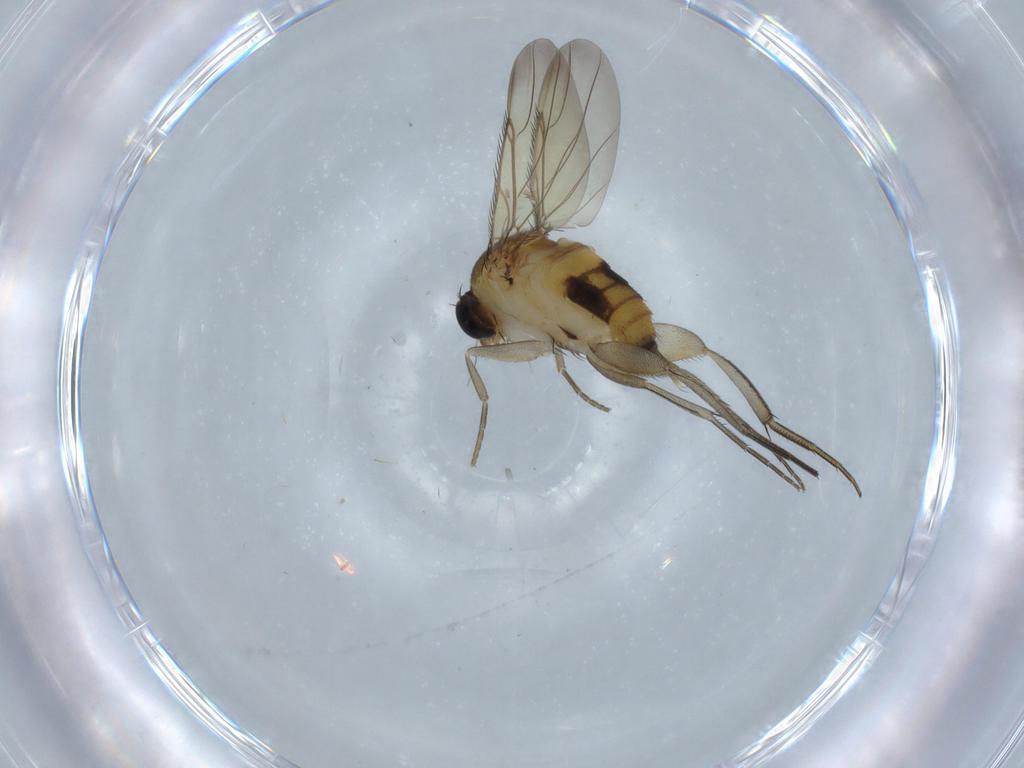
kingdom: Animalia
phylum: Arthropoda
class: Insecta
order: Diptera
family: Phoridae
